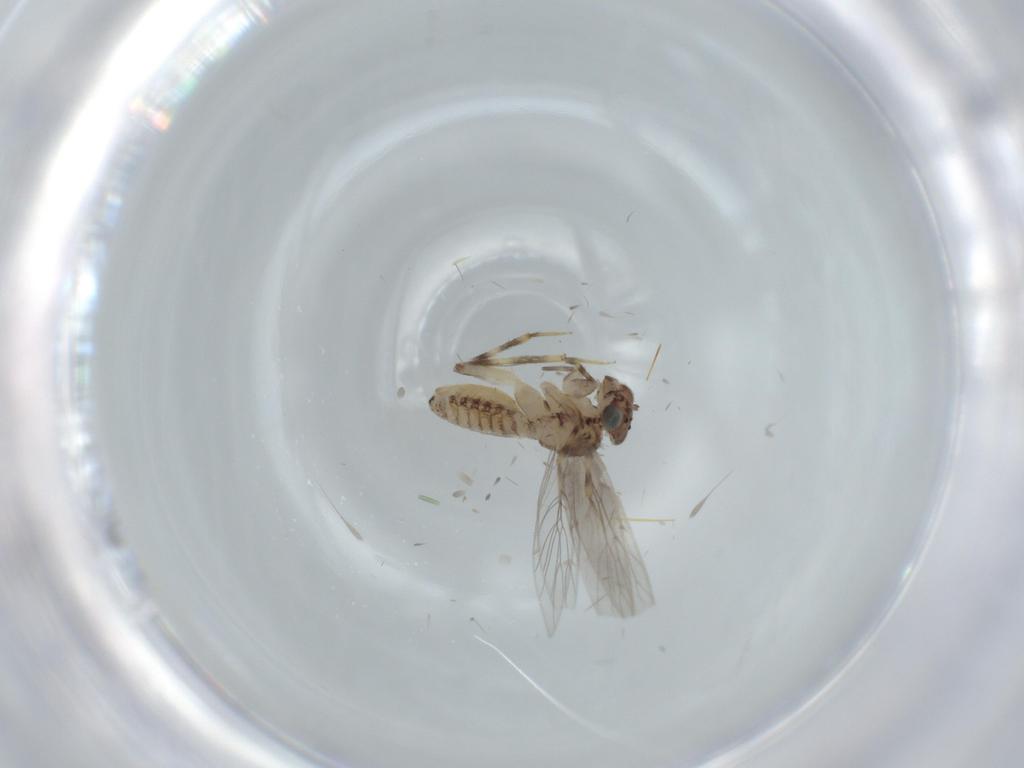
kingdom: Animalia
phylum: Arthropoda
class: Insecta
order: Psocodea
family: Lepidopsocidae
